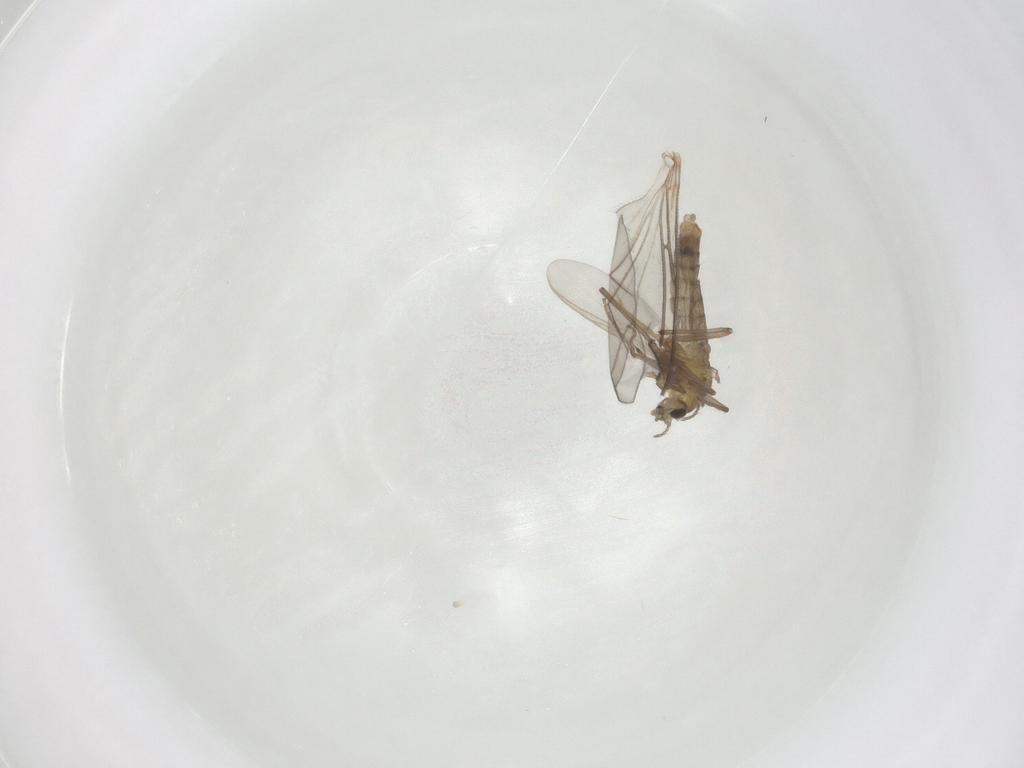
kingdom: Animalia
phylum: Arthropoda
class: Insecta
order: Diptera
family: Chironomidae
